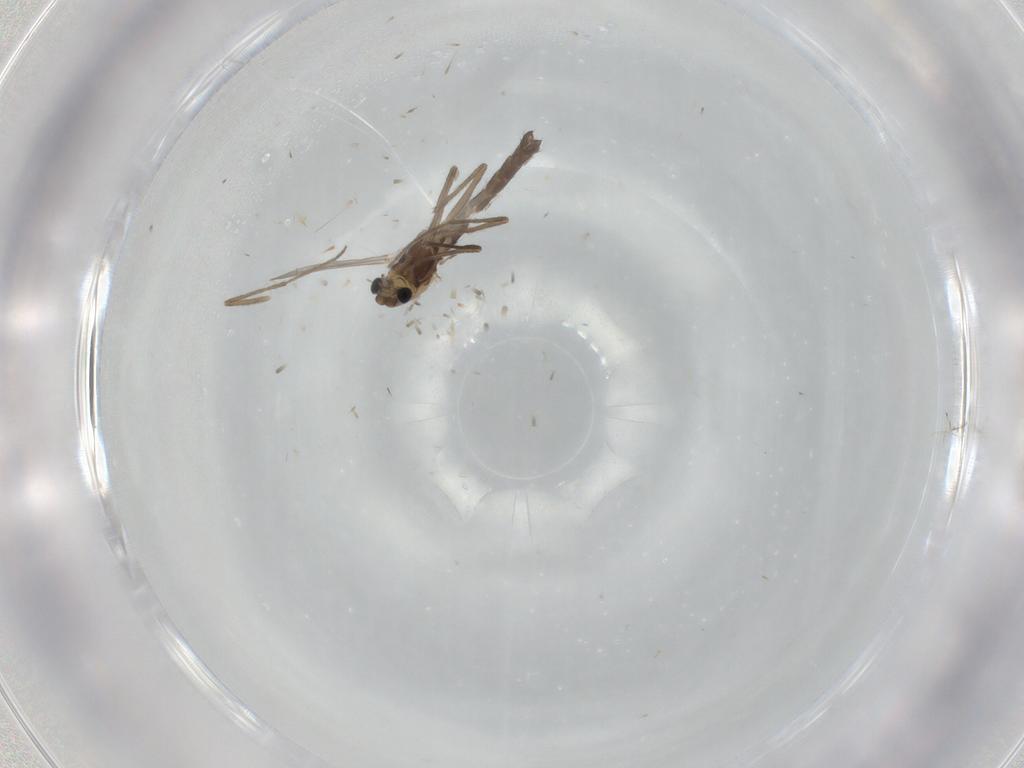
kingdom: Animalia
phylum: Arthropoda
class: Insecta
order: Diptera
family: Chironomidae
